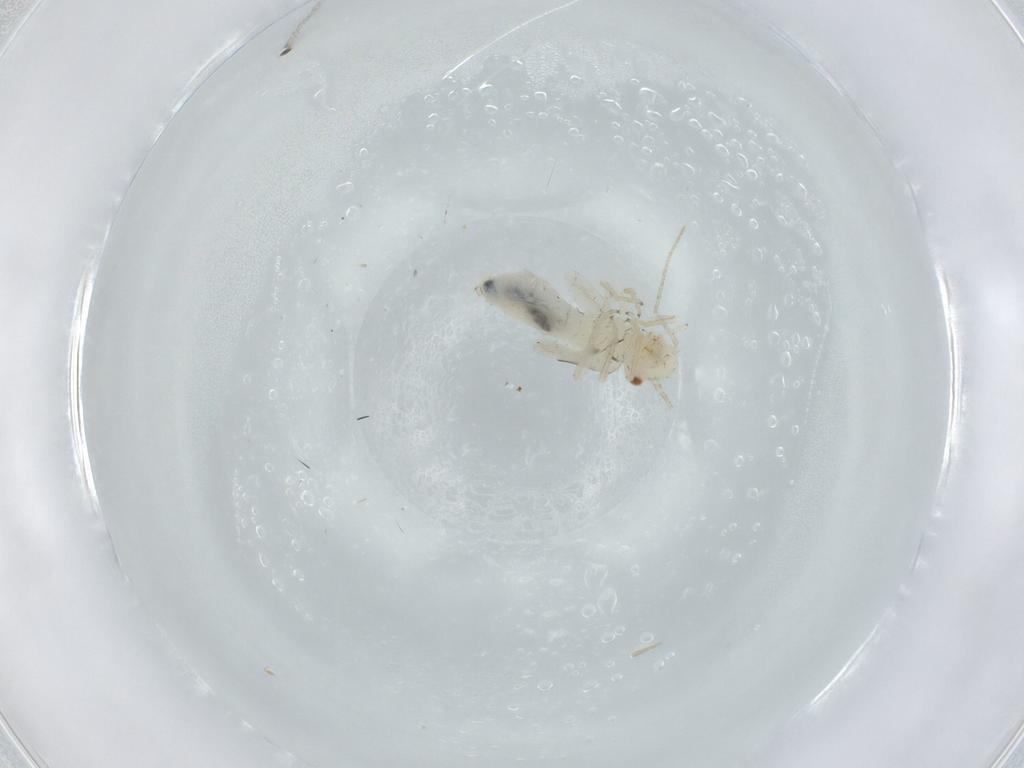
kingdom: Animalia
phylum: Arthropoda
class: Insecta
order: Psocodea
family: Caeciliusidae
